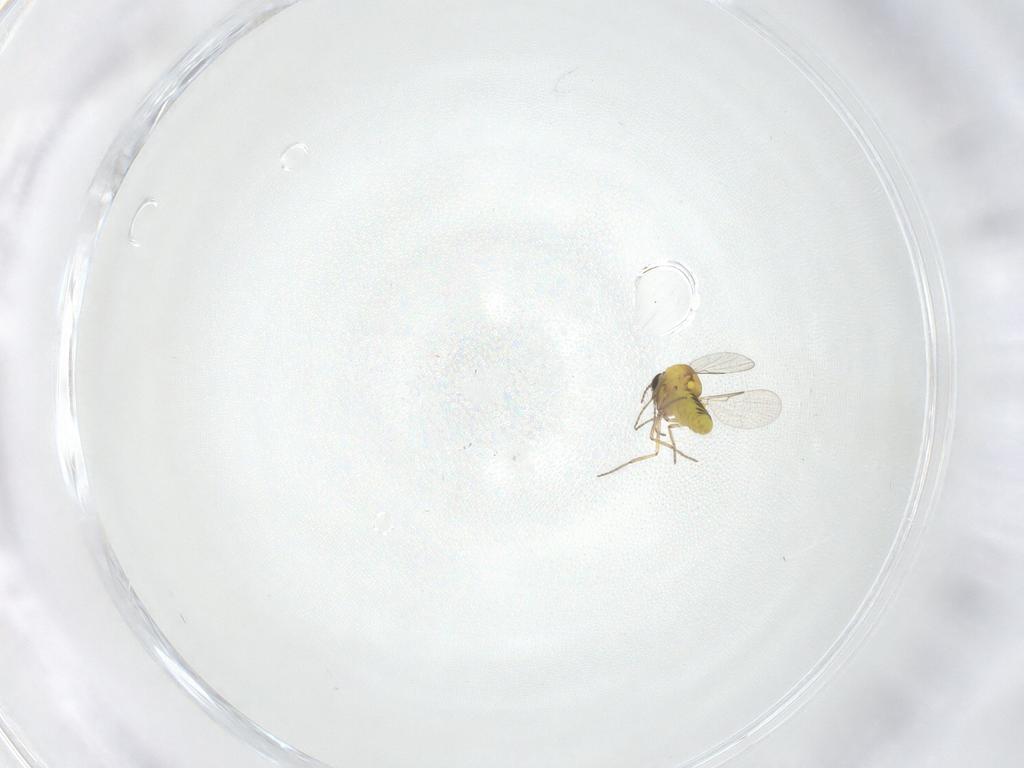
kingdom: Animalia
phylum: Arthropoda
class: Insecta
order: Diptera
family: Ceratopogonidae
